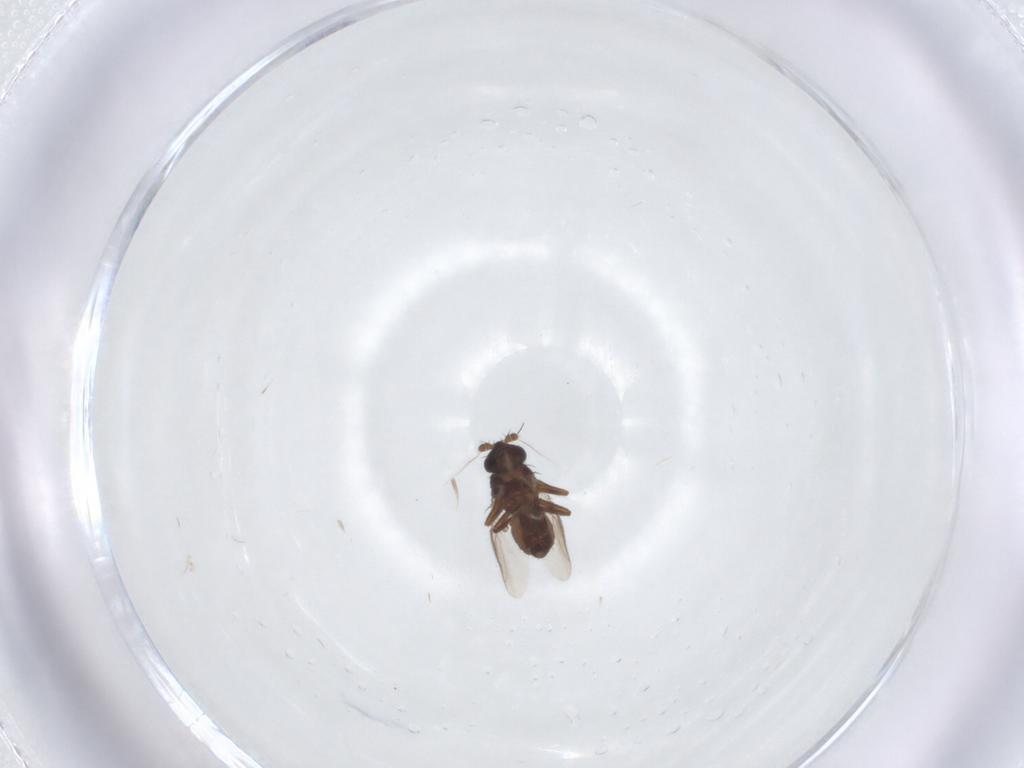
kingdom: Animalia
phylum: Arthropoda
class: Insecta
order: Diptera
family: Sphaeroceridae
